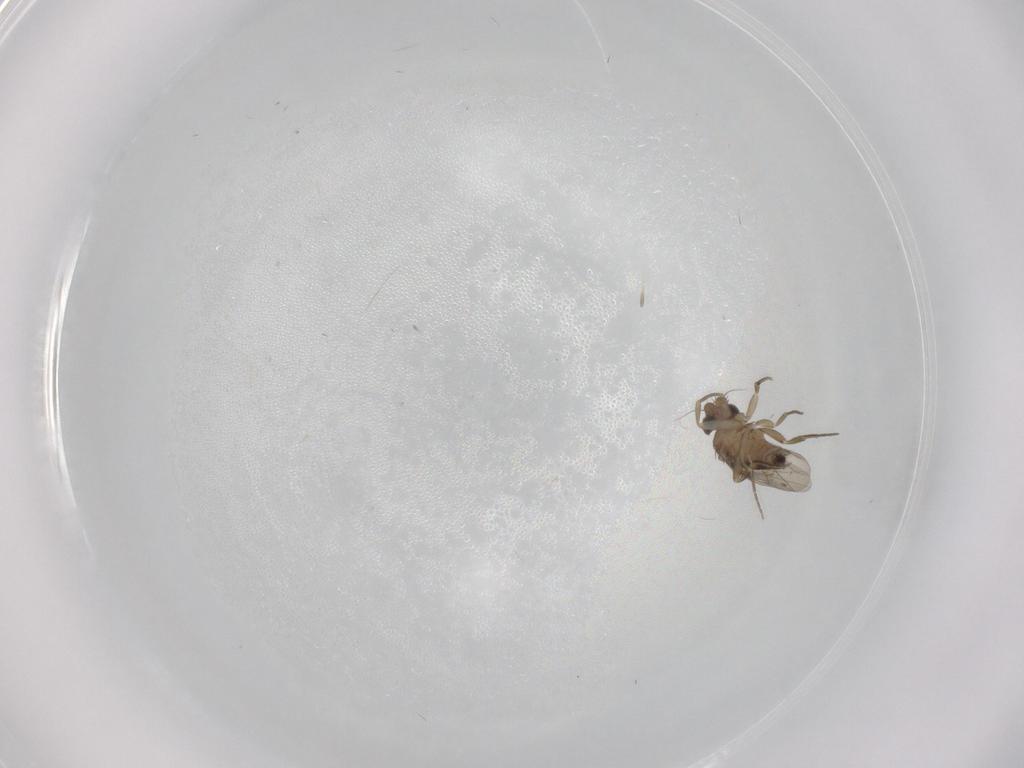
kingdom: Animalia
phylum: Arthropoda
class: Insecta
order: Diptera
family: Phoridae
